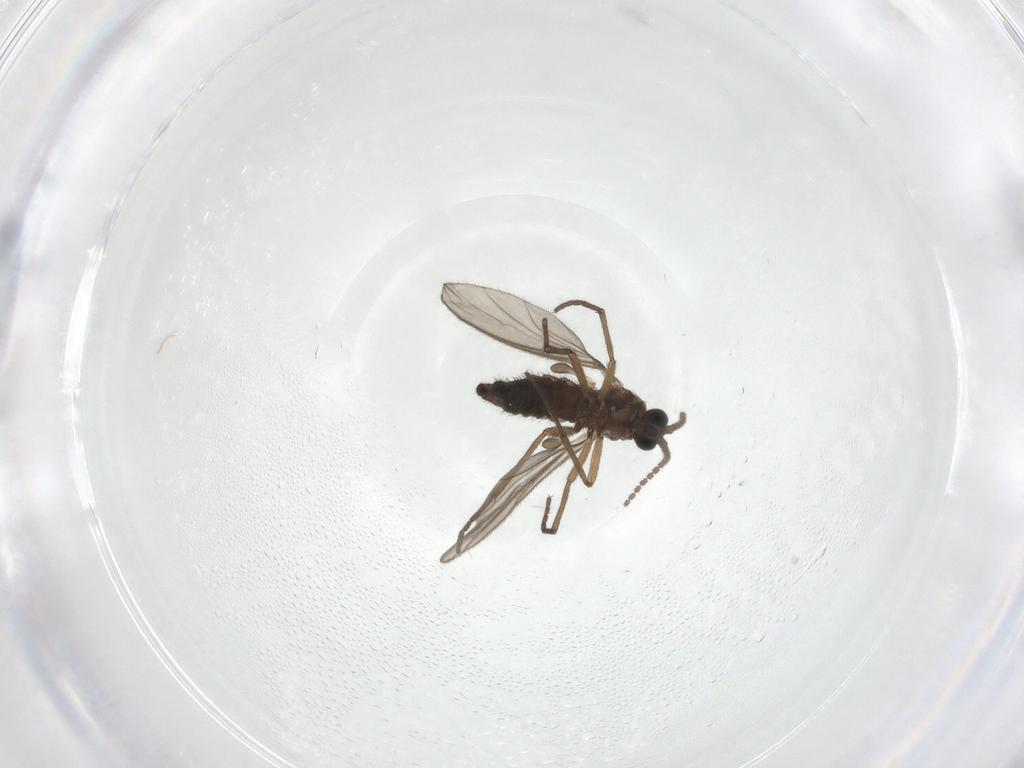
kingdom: Animalia
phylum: Arthropoda
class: Insecta
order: Diptera
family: Sciaridae
